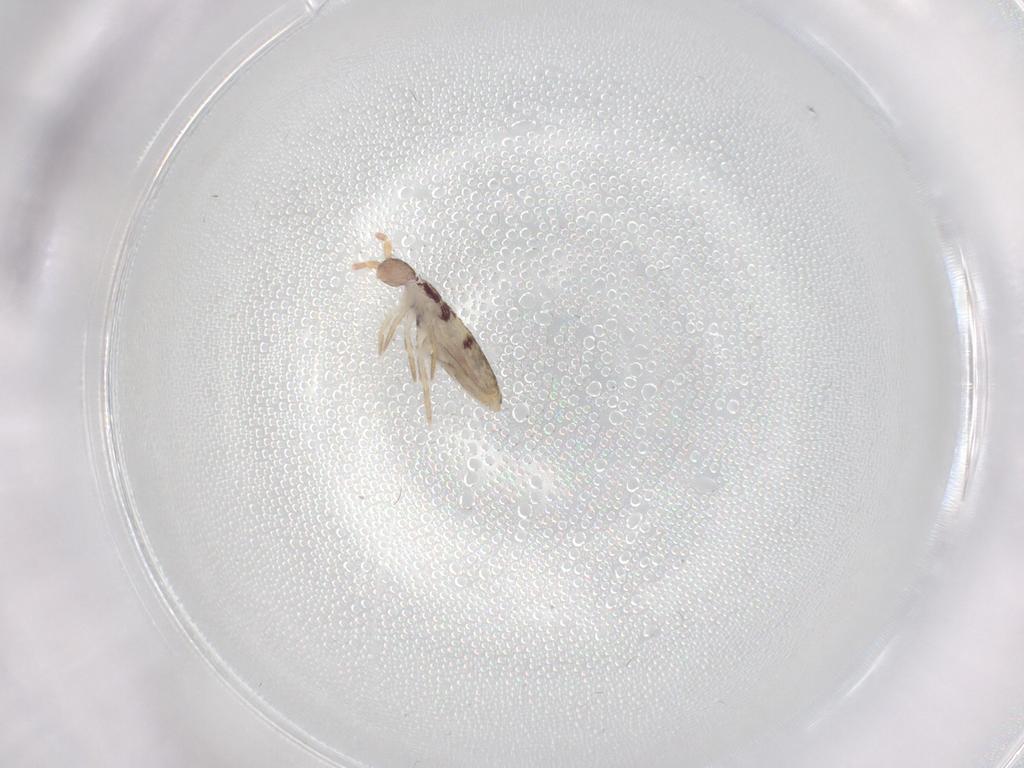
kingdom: Animalia
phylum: Arthropoda
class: Collembola
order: Entomobryomorpha
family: Entomobryidae
